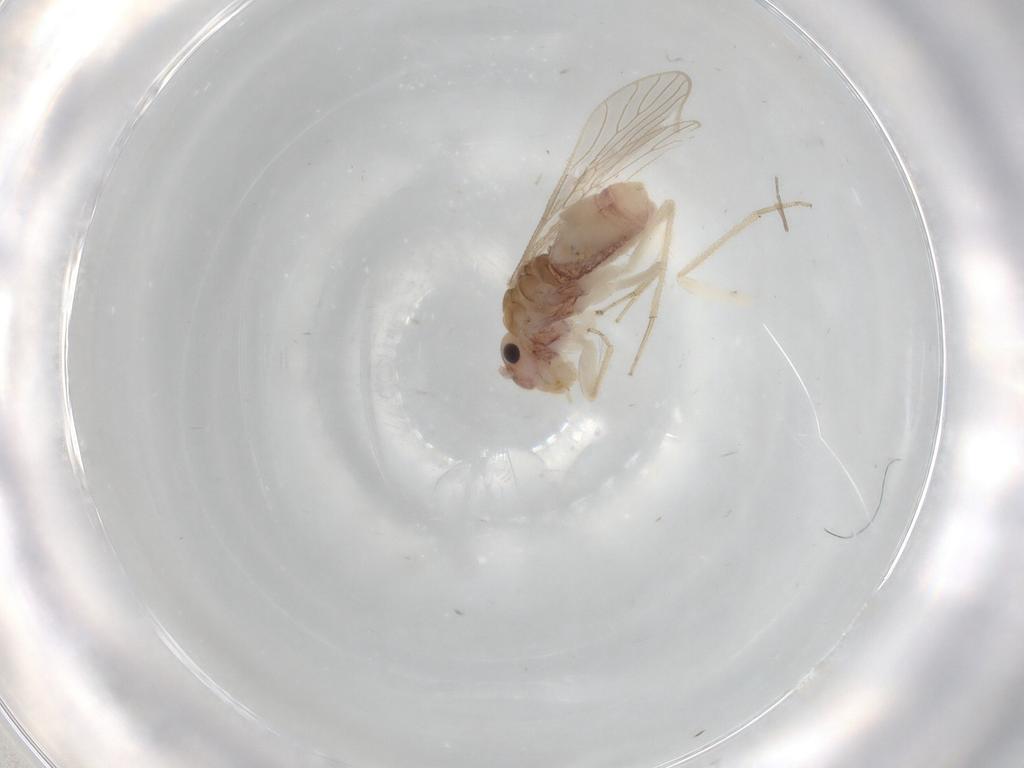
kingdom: Animalia
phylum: Arthropoda
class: Insecta
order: Psocodea
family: Cladiopsocidae
